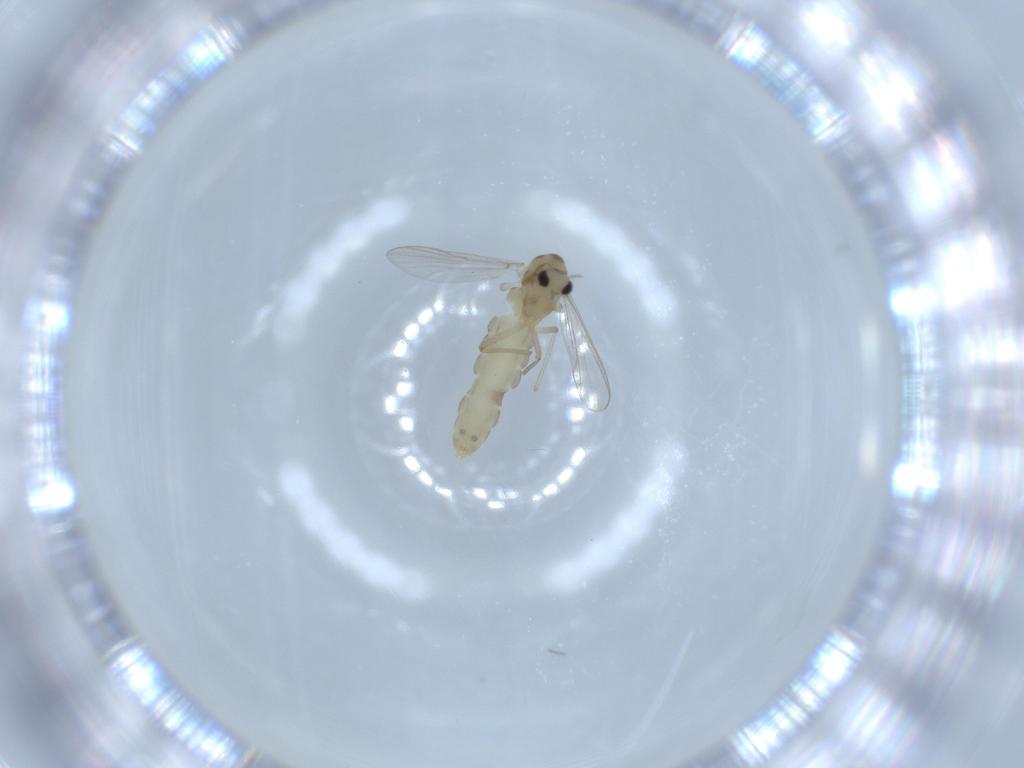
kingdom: Animalia
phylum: Arthropoda
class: Insecta
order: Diptera
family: Chironomidae
